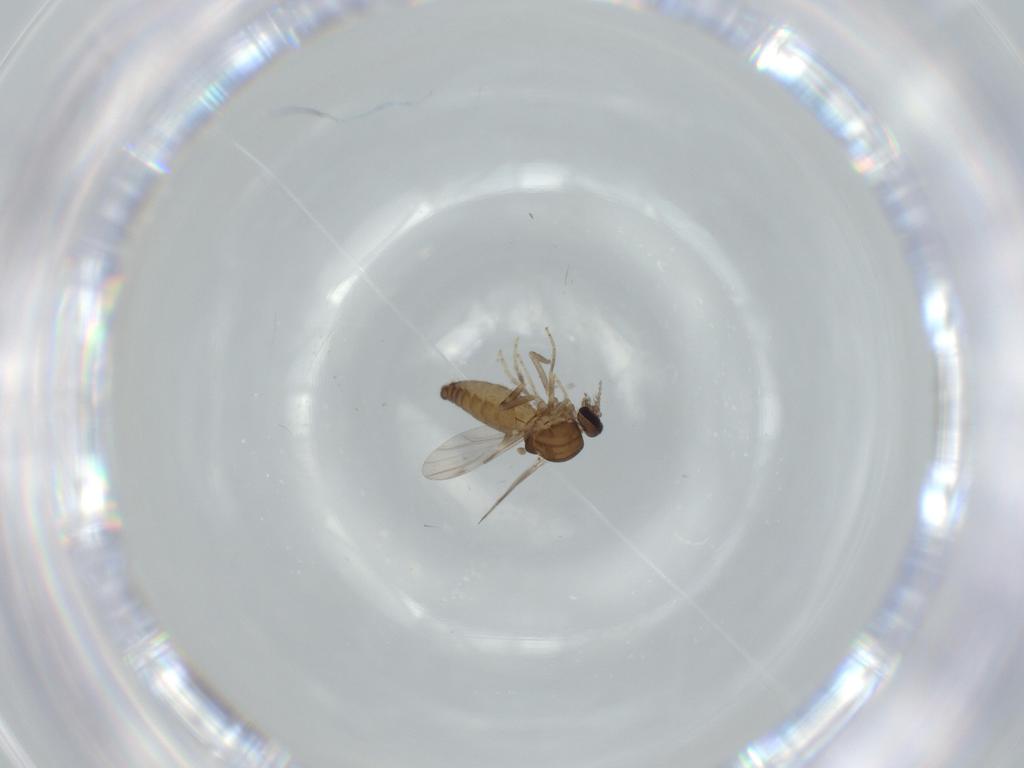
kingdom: Animalia
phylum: Arthropoda
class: Insecta
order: Diptera
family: Ceratopogonidae
